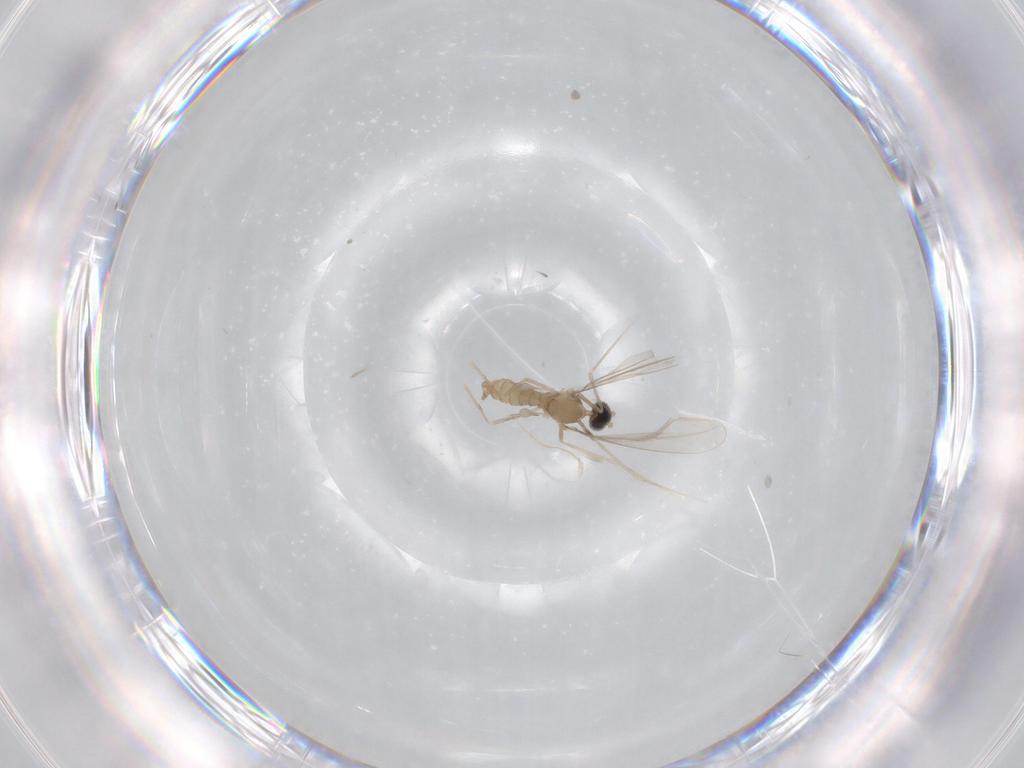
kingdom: Animalia
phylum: Arthropoda
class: Insecta
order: Diptera
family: Cecidomyiidae
